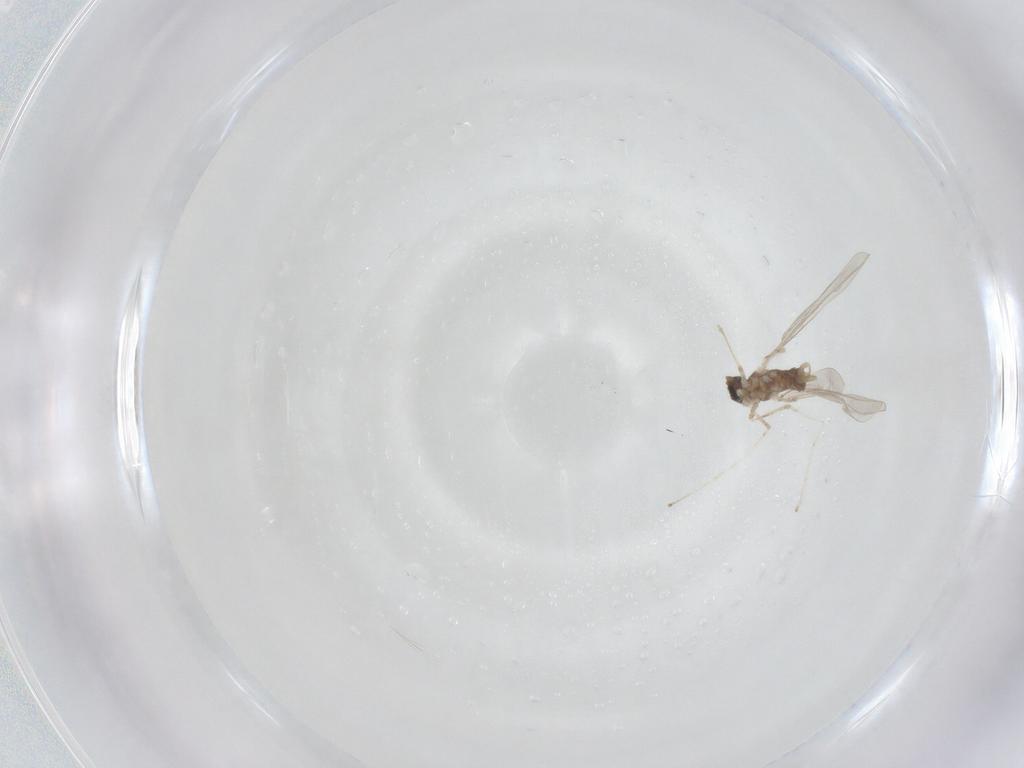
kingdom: Animalia
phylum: Arthropoda
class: Insecta
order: Diptera
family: Cecidomyiidae
